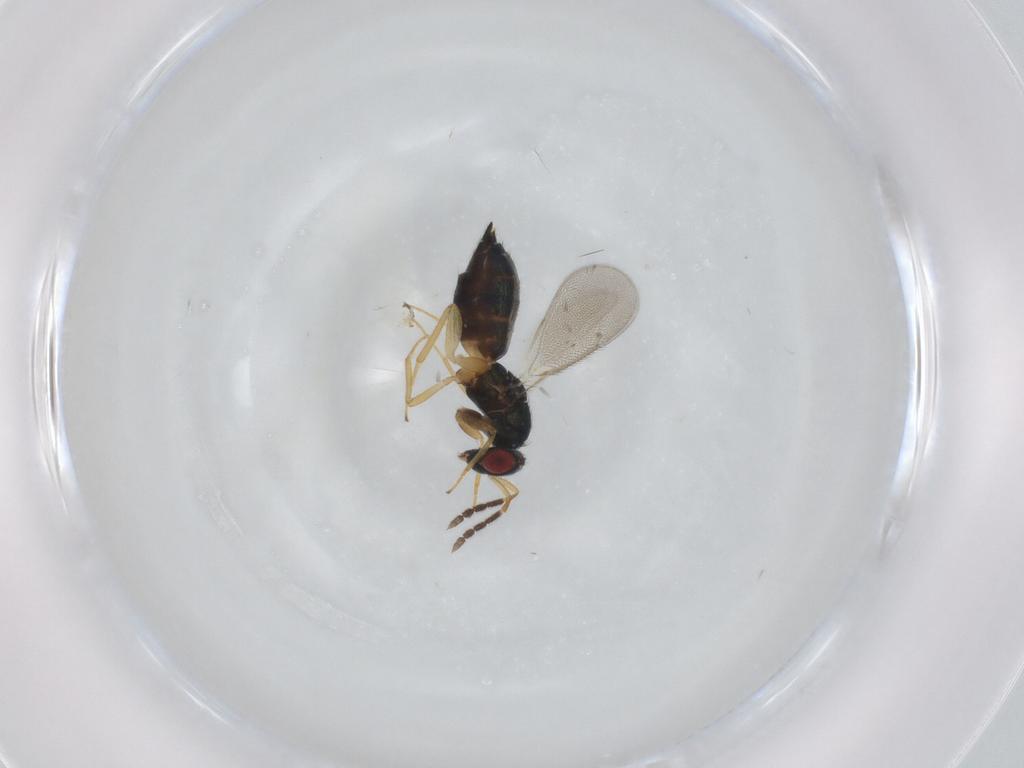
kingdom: Animalia
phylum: Arthropoda
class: Insecta
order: Hymenoptera
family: Eulophidae
